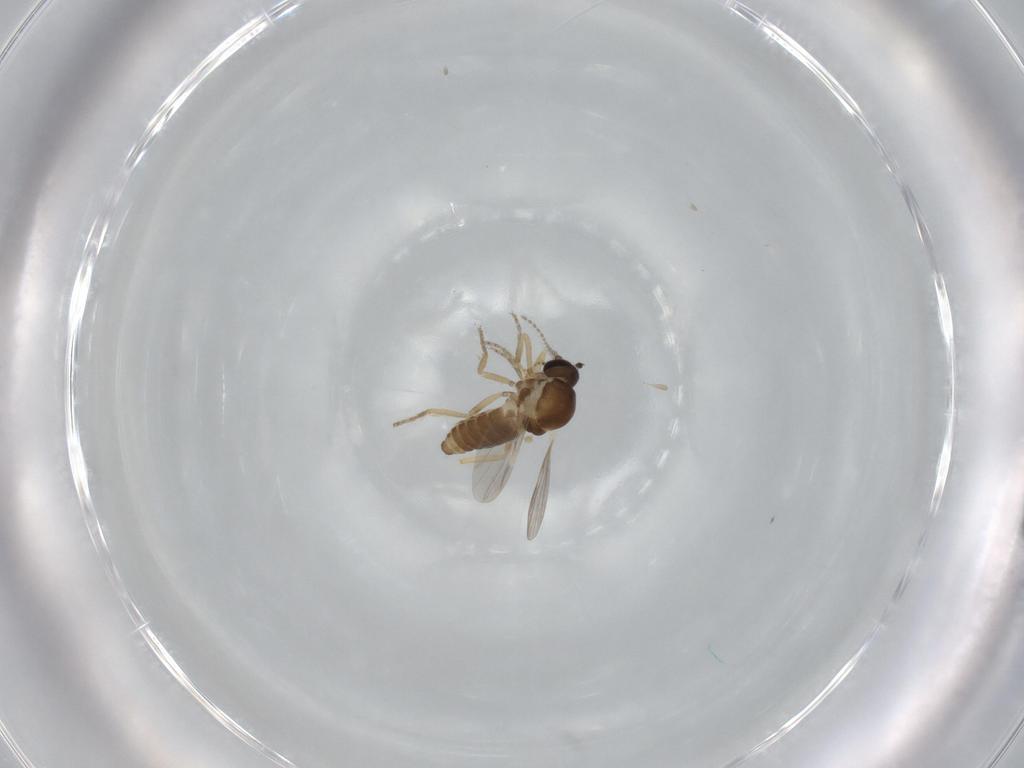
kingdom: Animalia
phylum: Arthropoda
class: Insecta
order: Diptera
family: Ceratopogonidae
